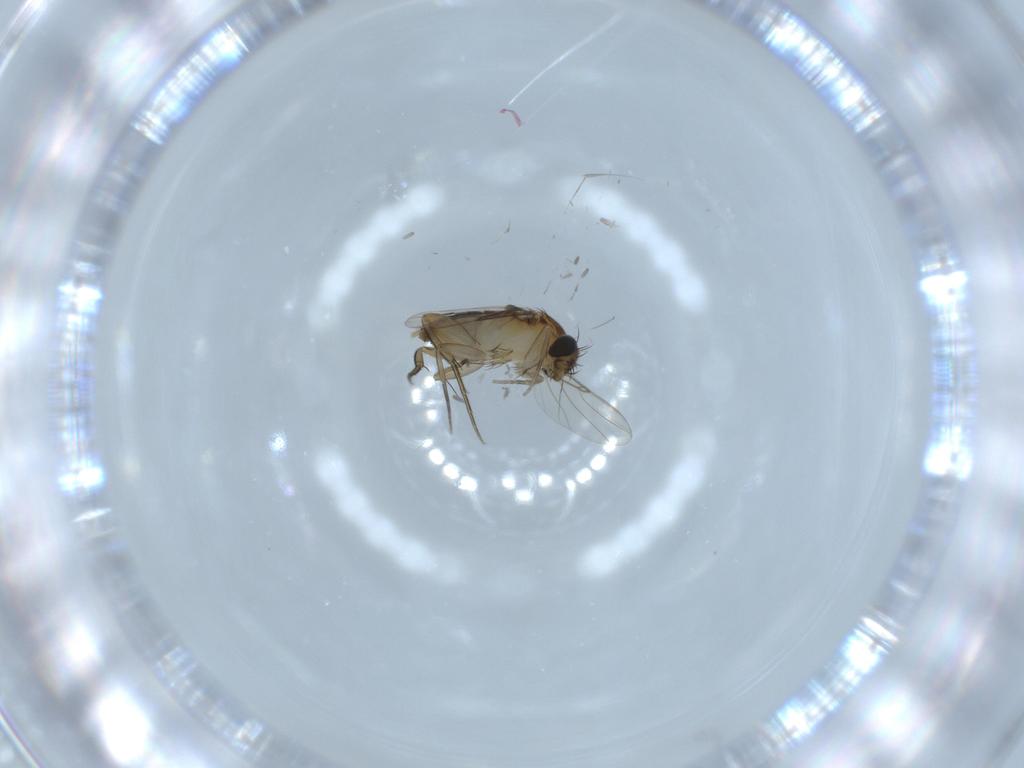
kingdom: Animalia
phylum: Arthropoda
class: Insecta
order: Diptera
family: Phoridae
